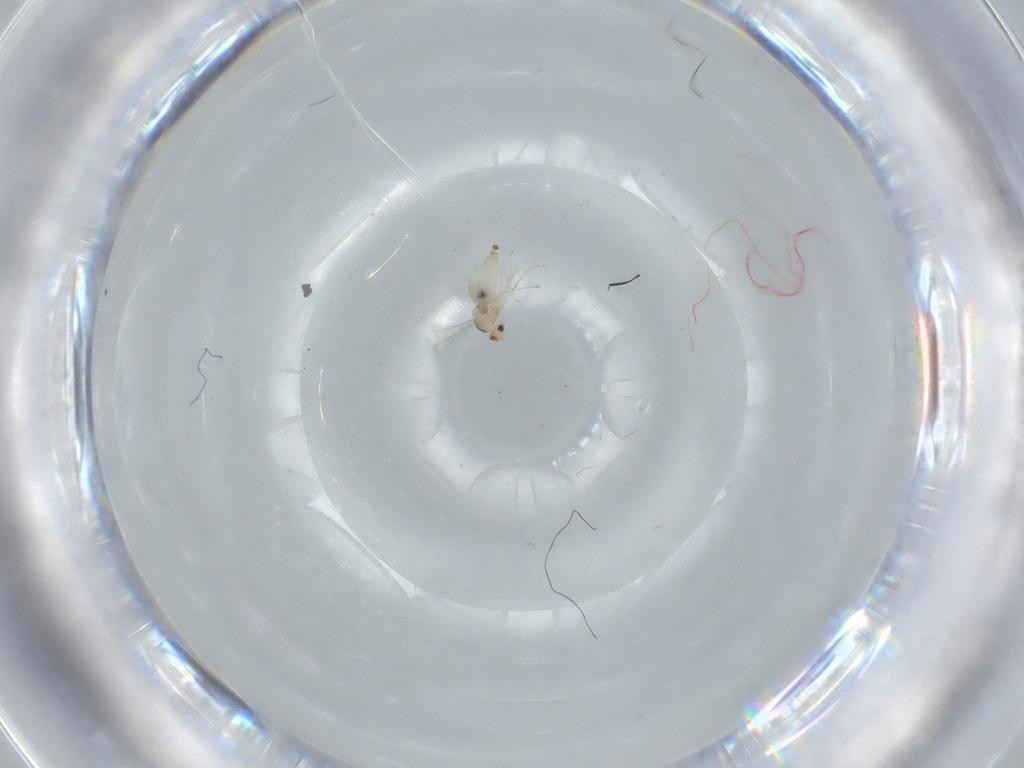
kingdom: Animalia
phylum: Arthropoda
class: Insecta
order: Diptera
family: Cecidomyiidae
